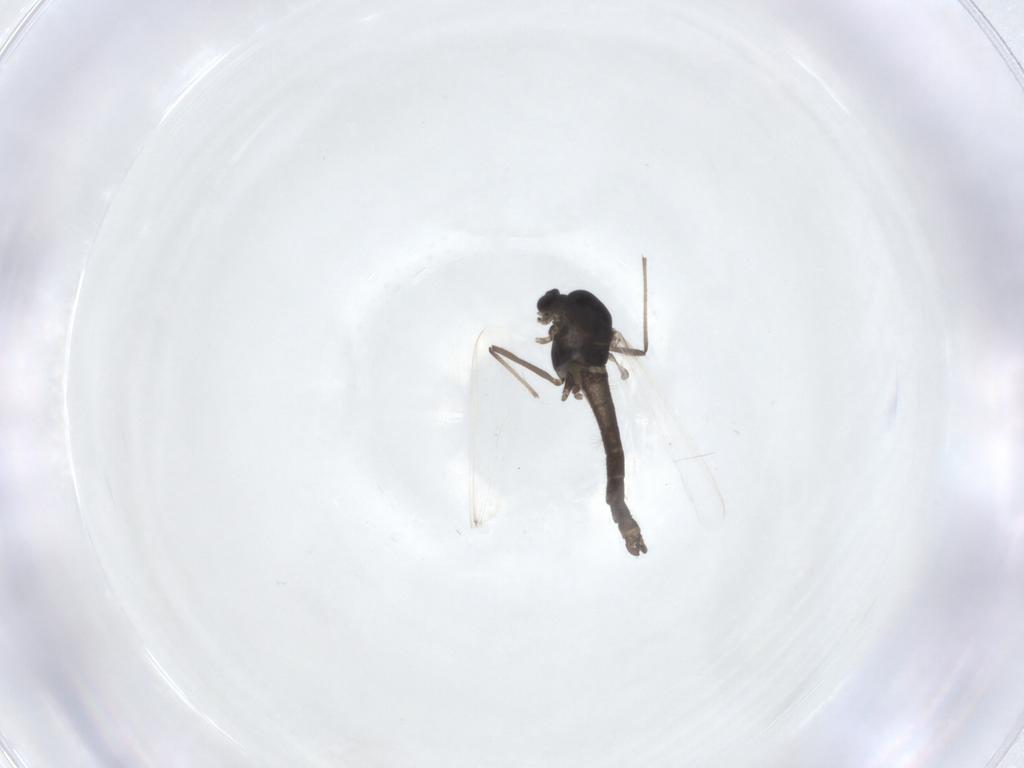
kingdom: Animalia
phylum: Arthropoda
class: Insecta
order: Diptera
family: Chironomidae
